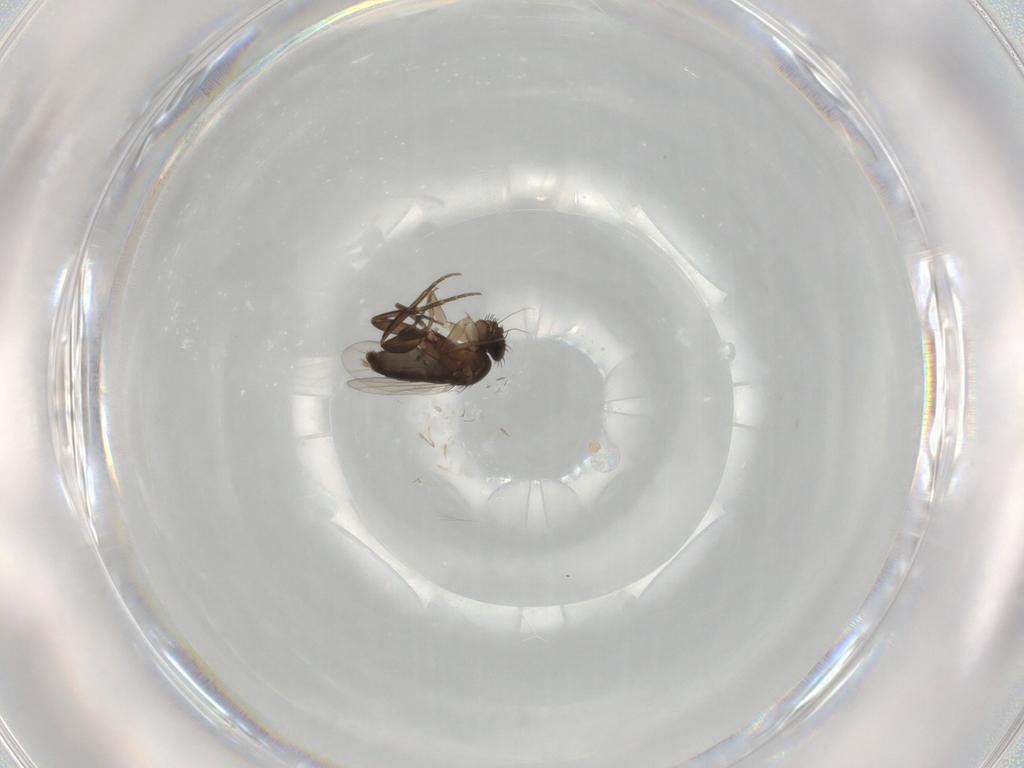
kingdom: Animalia
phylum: Arthropoda
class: Insecta
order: Diptera
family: Phoridae
